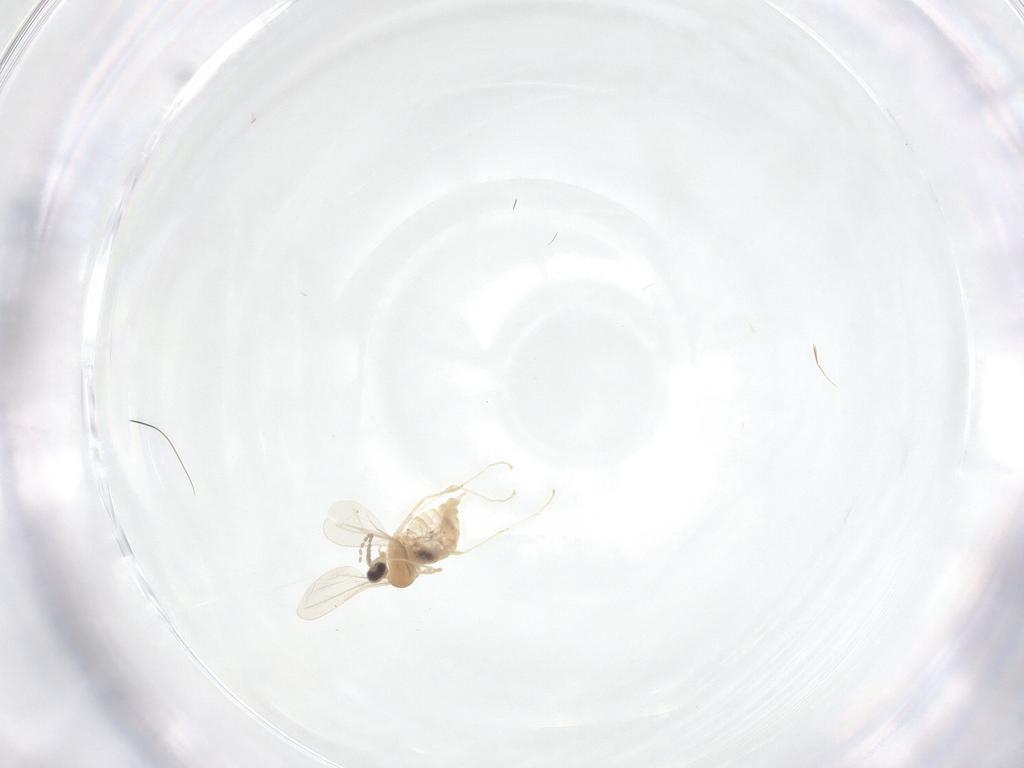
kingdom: Animalia
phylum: Arthropoda
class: Insecta
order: Diptera
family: Cecidomyiidae
